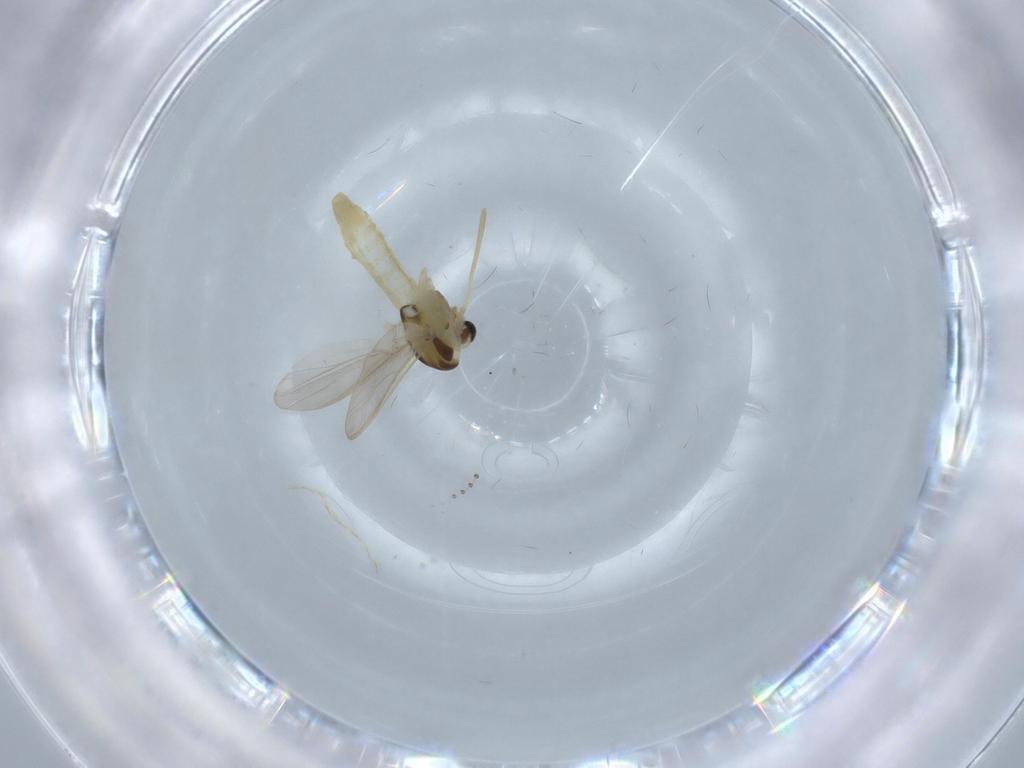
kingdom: Animalia
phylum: Arthropoda
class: Insecta
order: Diptera
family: Chironomidae
